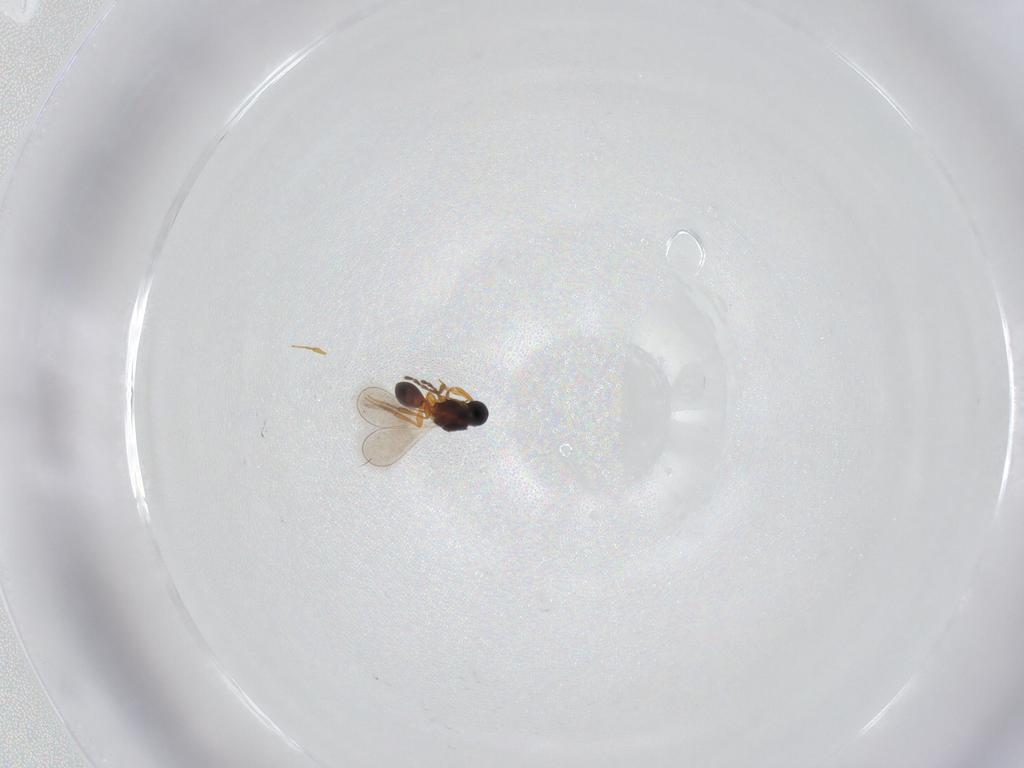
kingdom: Animalia
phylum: Arthropoda
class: Insecta
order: Hymenoptera
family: Platygastridae
